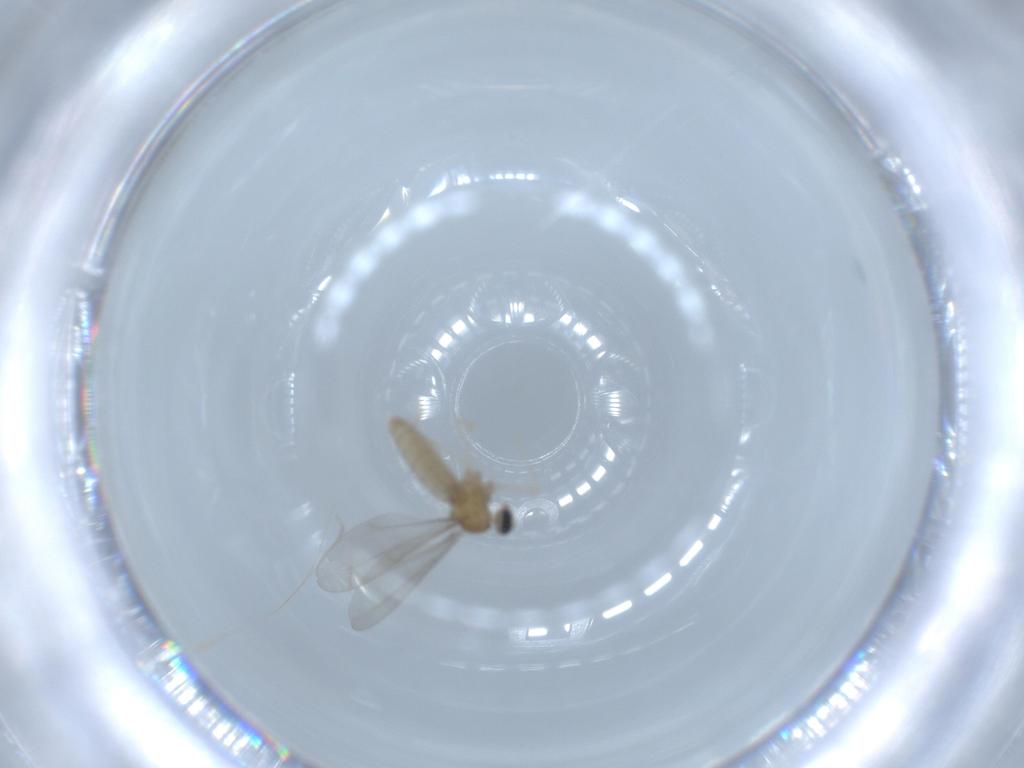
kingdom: Animalia
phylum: Arthropoda
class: Insecta
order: Diptera
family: Cecidomyiidae
